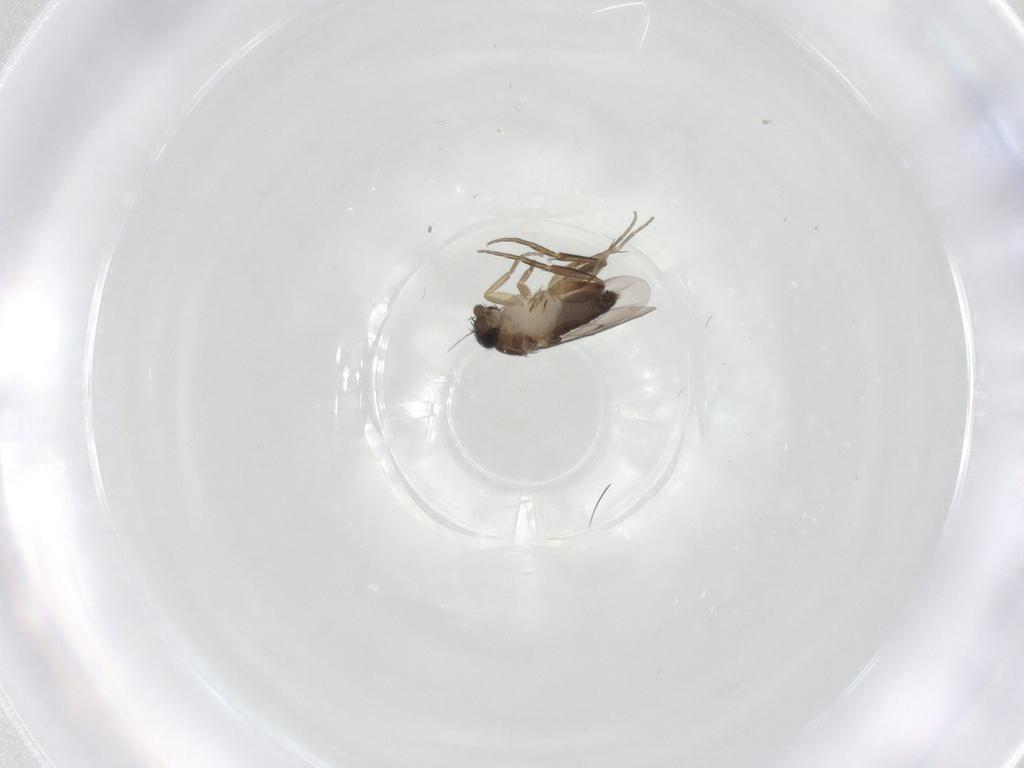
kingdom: Animalia
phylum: Arthropoda
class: Insecta
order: Diptera
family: Phoridae
